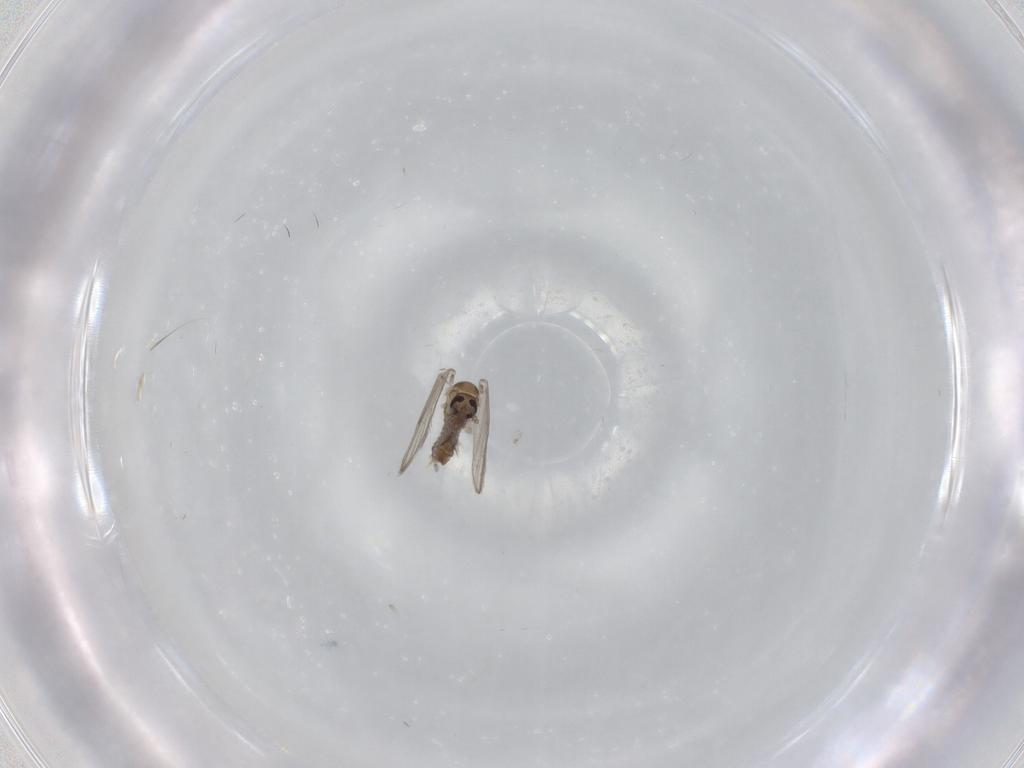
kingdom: Animalia
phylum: Arthropoda
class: Insecta
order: Diptera
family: Psychodidae
